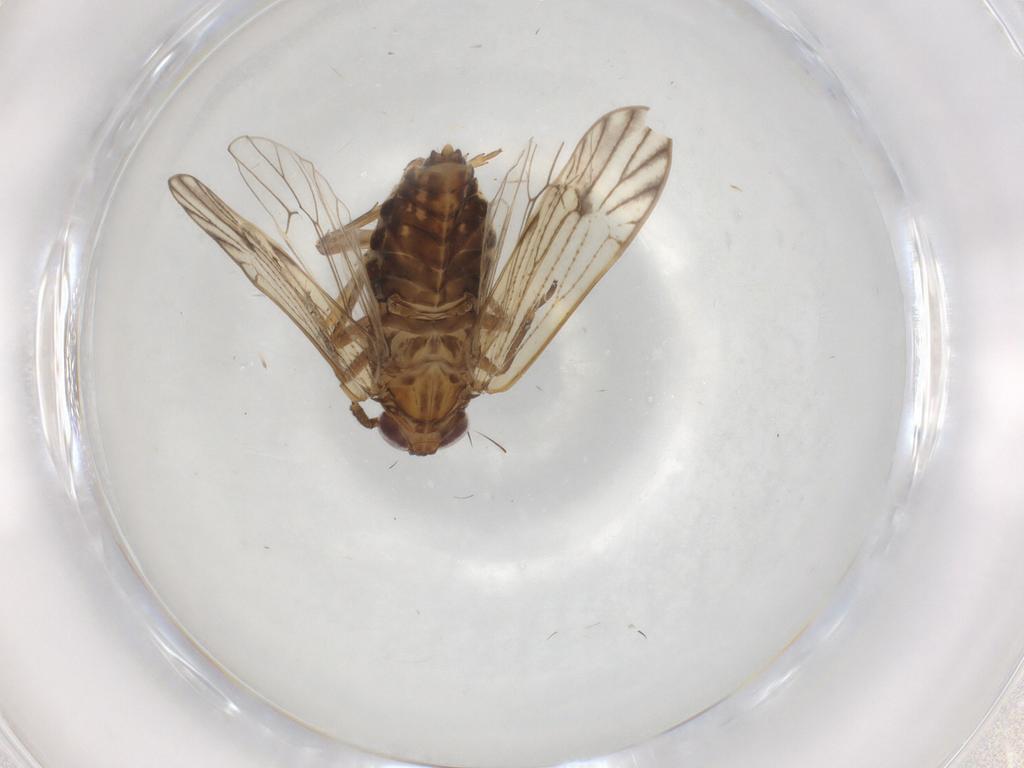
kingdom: Animalia
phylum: Arthropoda
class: Insecta
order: Hemiptera
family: Delphacidae
